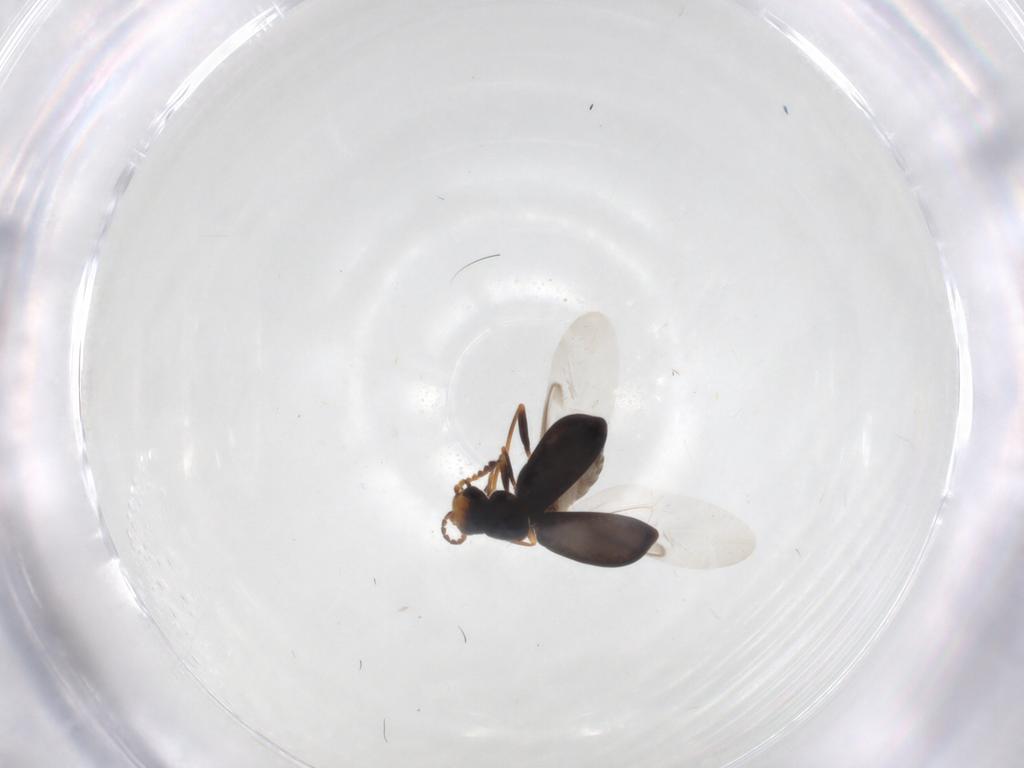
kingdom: Animalia
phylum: Arthropoda
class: Insecta
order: Coleoptera
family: Melyridae
